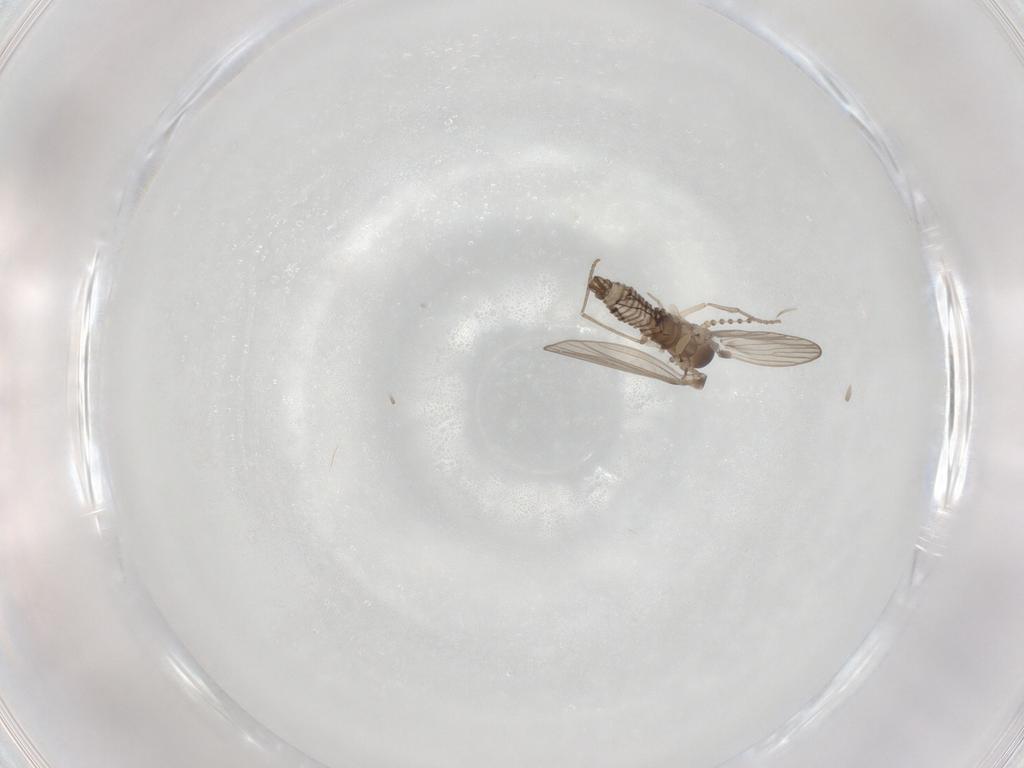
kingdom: Animalia
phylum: Arthropoda
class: Insecta
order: Diptera
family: Psychodidae
